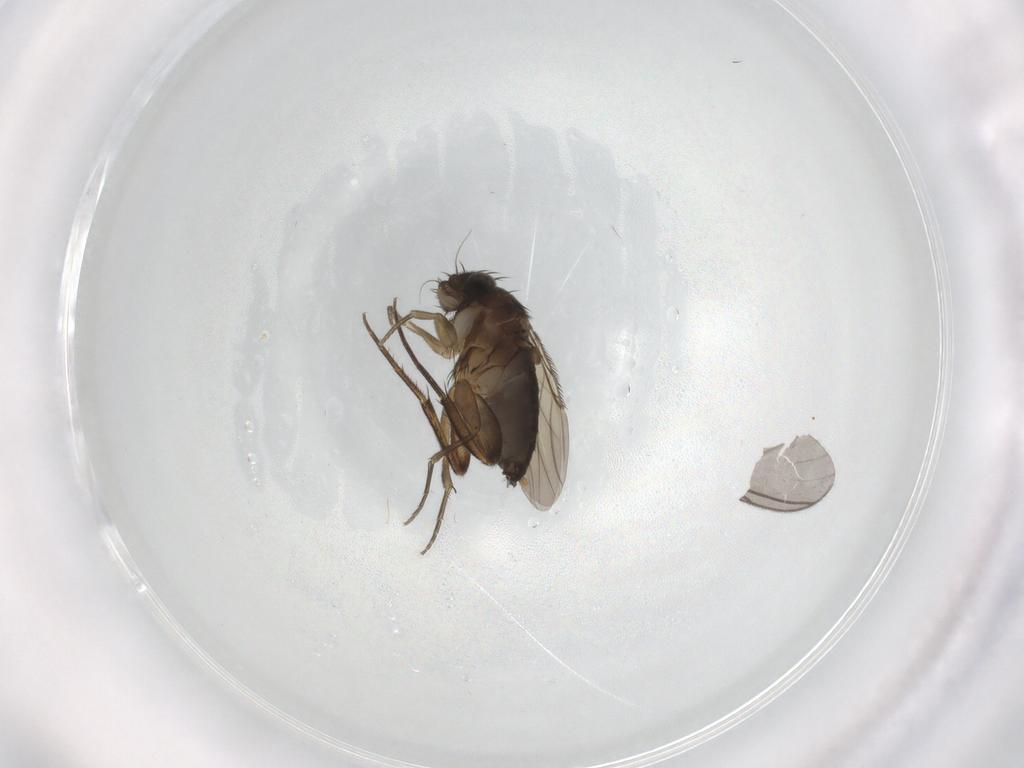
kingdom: Animalia
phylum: Arthropoda
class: Insecta
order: Diptera
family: Phoridae
